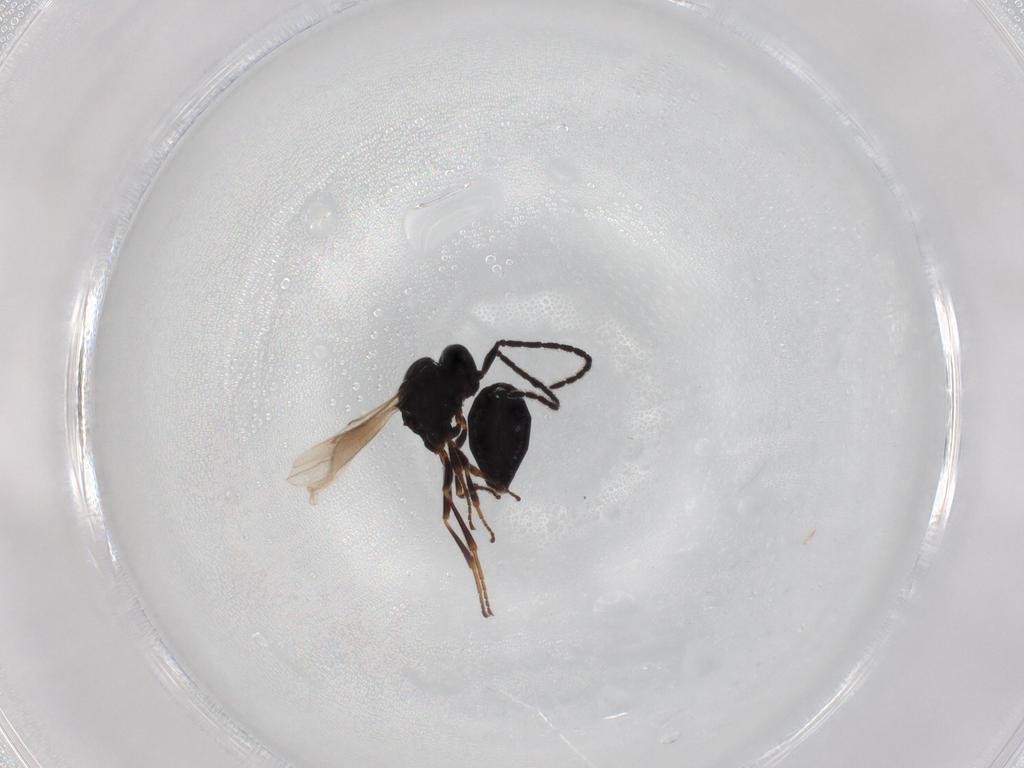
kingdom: Animalia
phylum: Arthropoda
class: Insecta
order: Hymenoptera
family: Scelionidae
